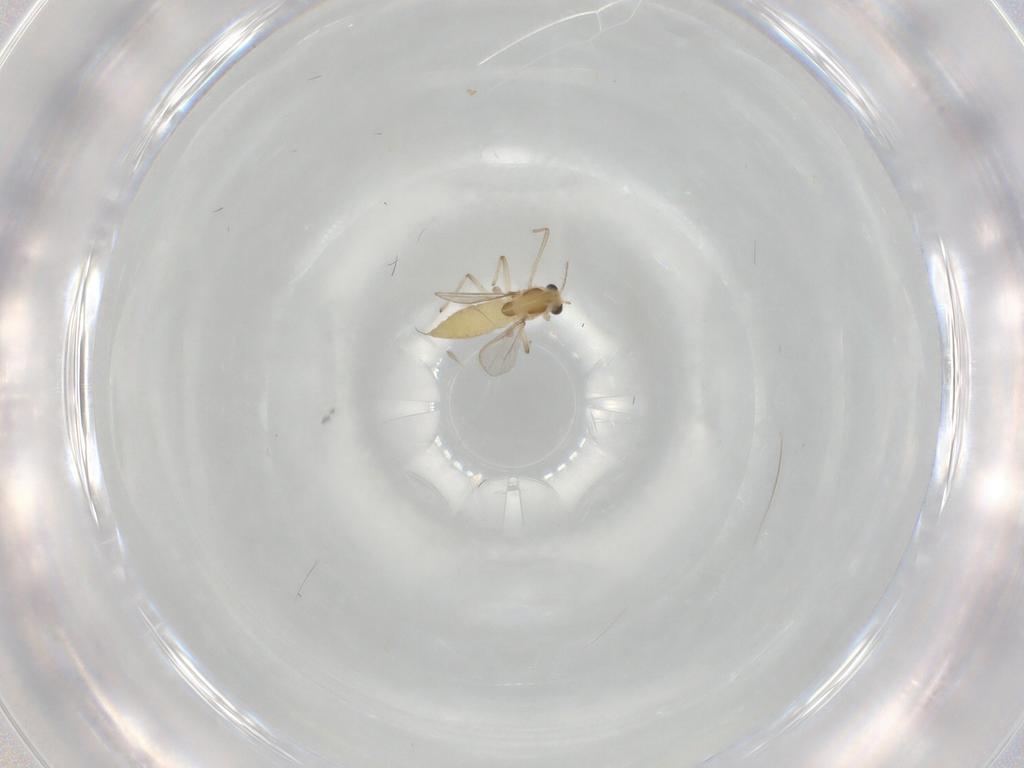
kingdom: Animalia
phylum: Arthropoda
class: Insecta
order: Diptera
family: Chironomidae
